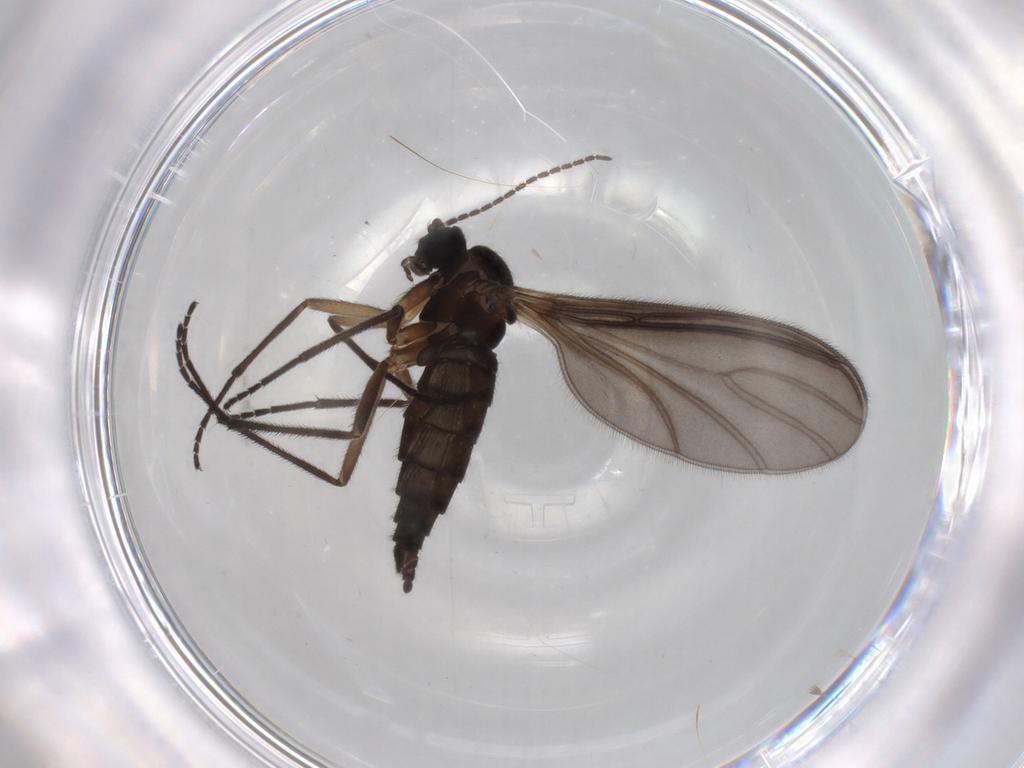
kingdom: Animalia
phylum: Arthropoda
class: Insecta
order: Diptera
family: Sciaridae
